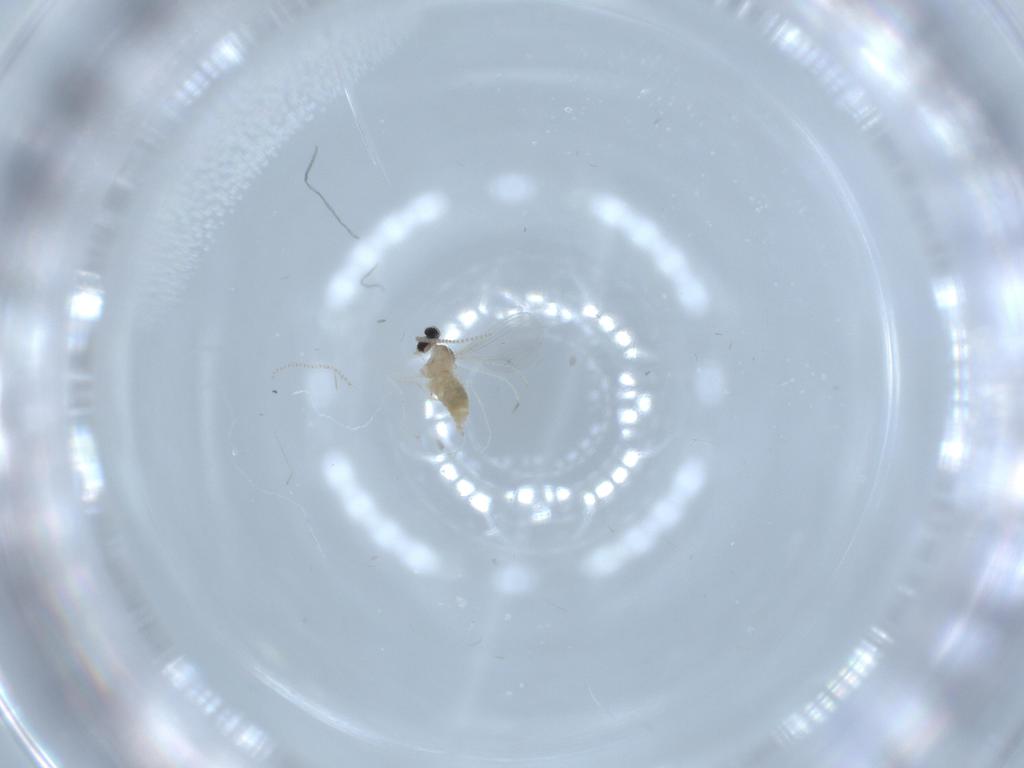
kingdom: Animalia
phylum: Arthropoda
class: Insecta
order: Diptera
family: Cecidomyiidae
